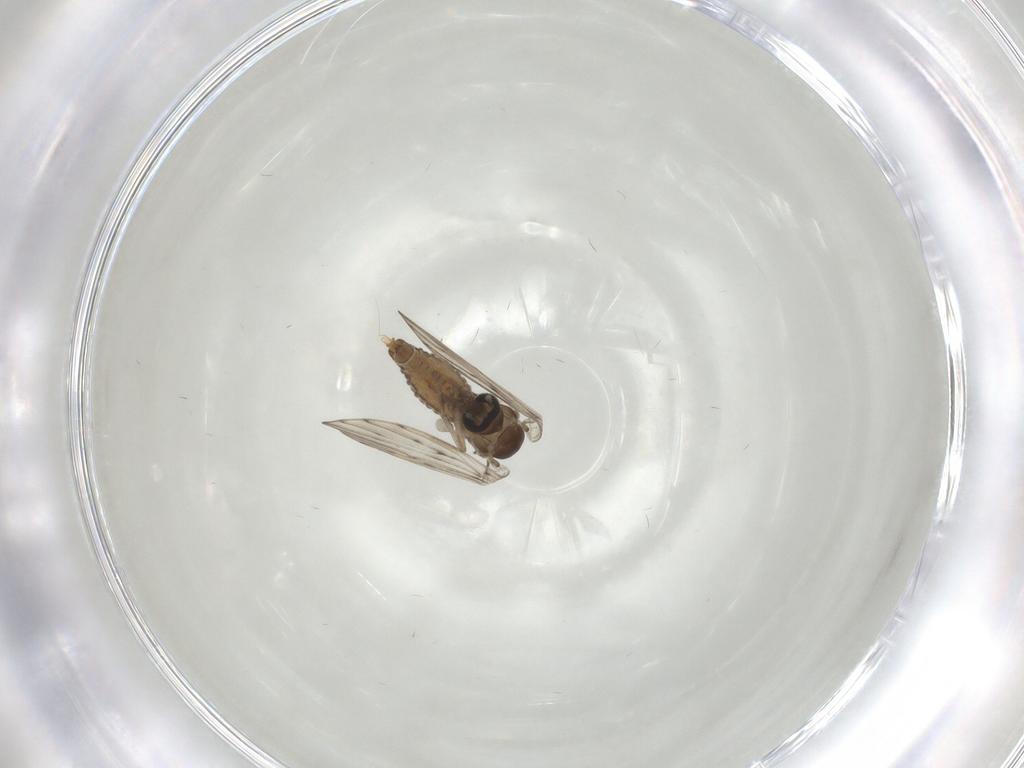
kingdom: Animalia
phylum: Arthropoda
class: Insecta
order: Diptera
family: Psychodidae
